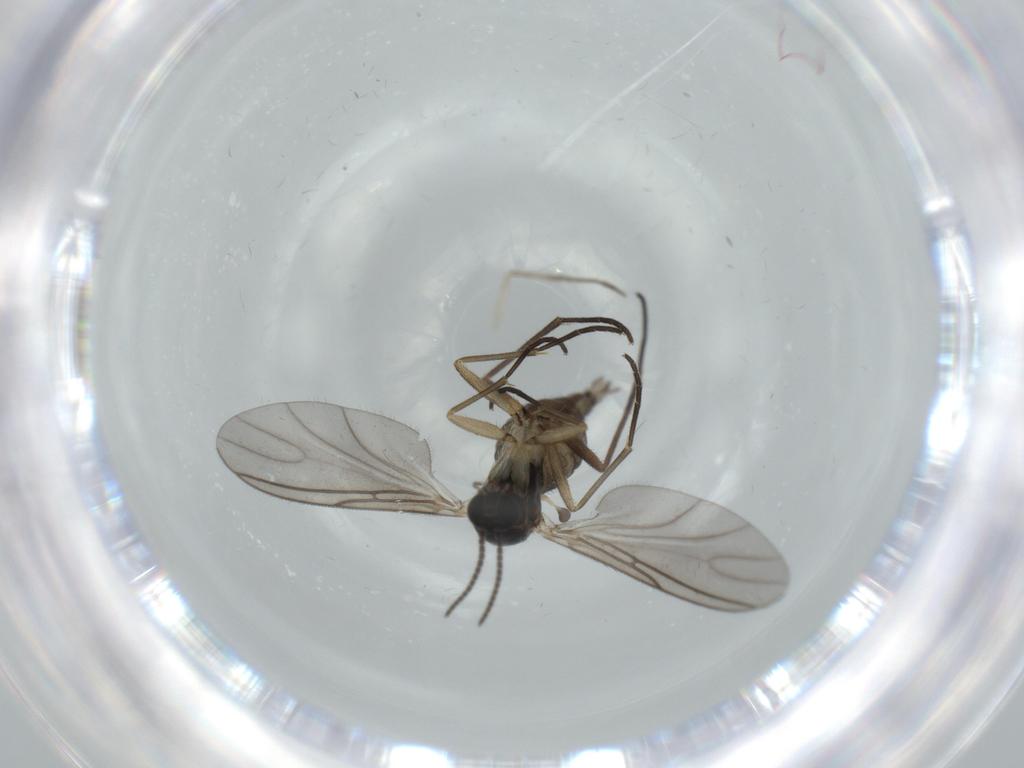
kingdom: Animalia
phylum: Arthropoda
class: Insecta
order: Diptera
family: Sciaridae
